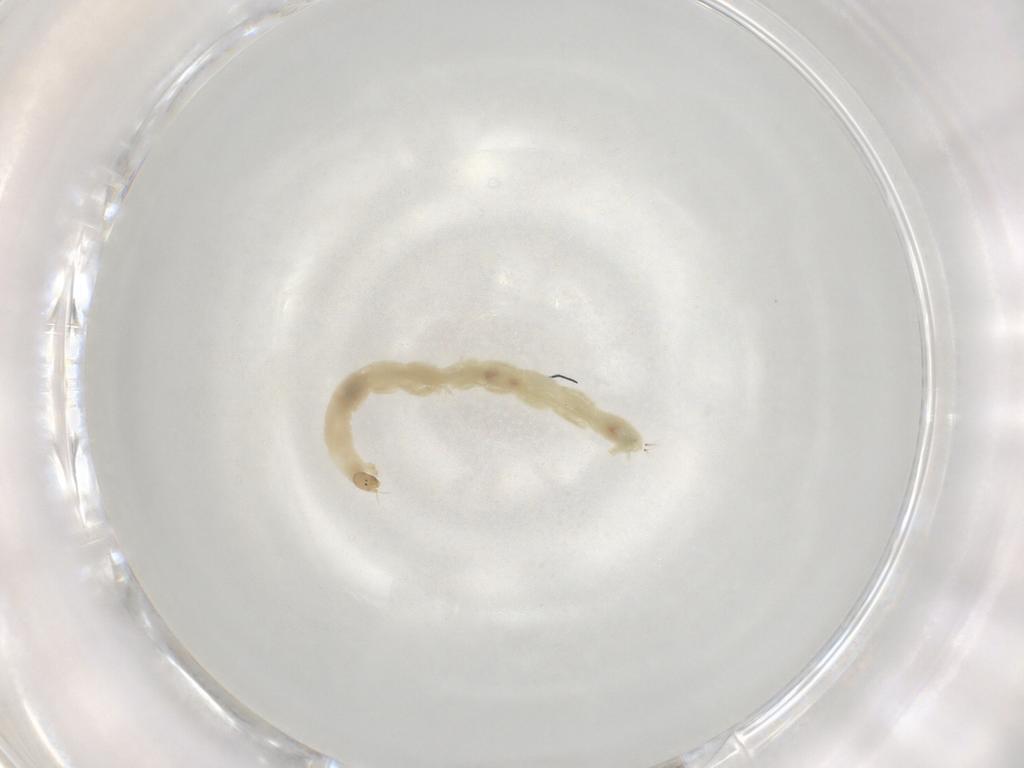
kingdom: Animalia
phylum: Arthropoda
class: Insecta
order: Diptera
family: Chironomidae
